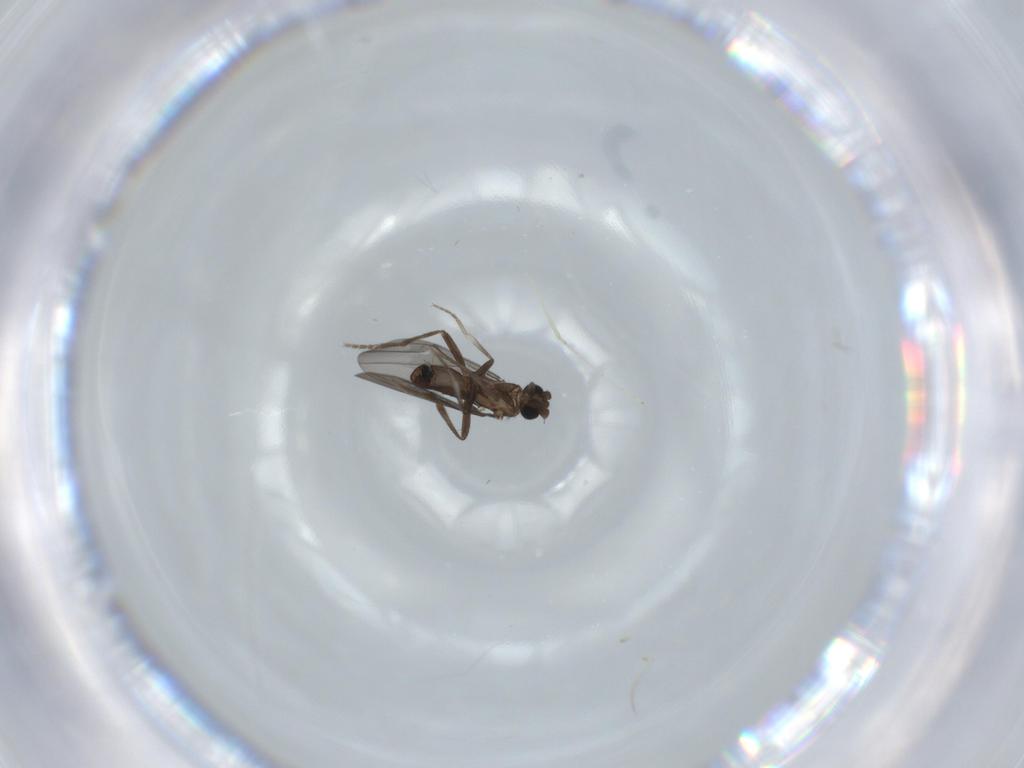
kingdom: Animalia
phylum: Arthropoda
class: Insecta
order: Diptera
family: Phoridae
